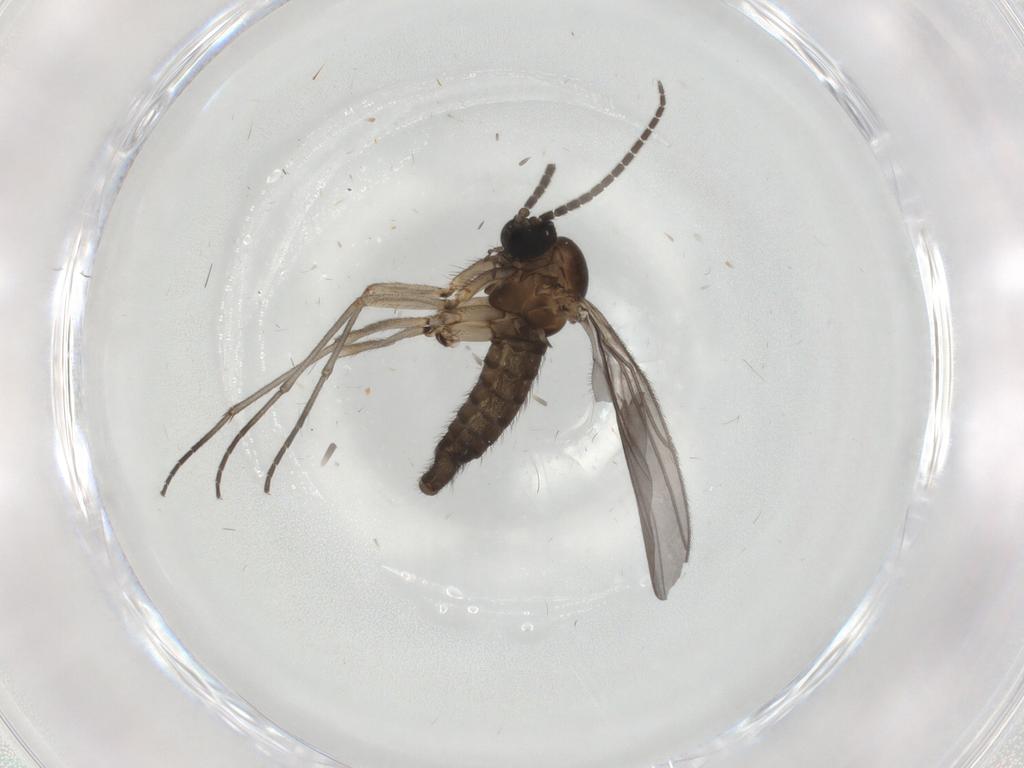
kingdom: Animalia
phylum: Arthropoda
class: Insecta
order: Diptera
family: Sciaridae
